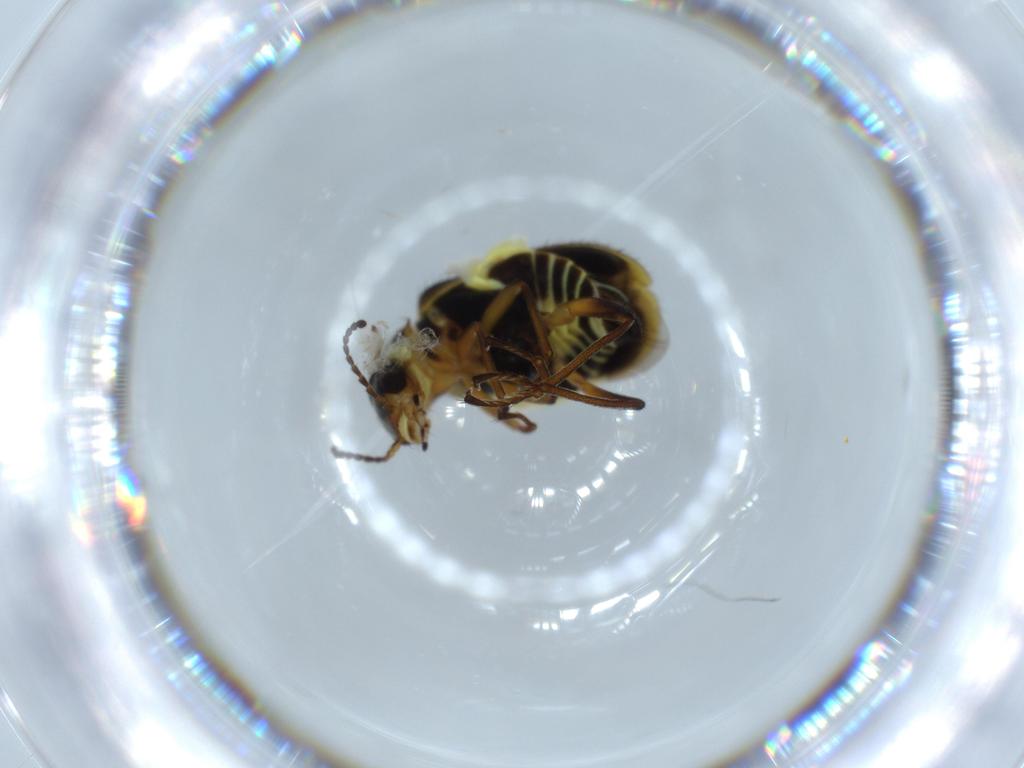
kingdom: Animalia
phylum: Arthropoda
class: Insecta
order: Coleoptera
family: Melyridae
